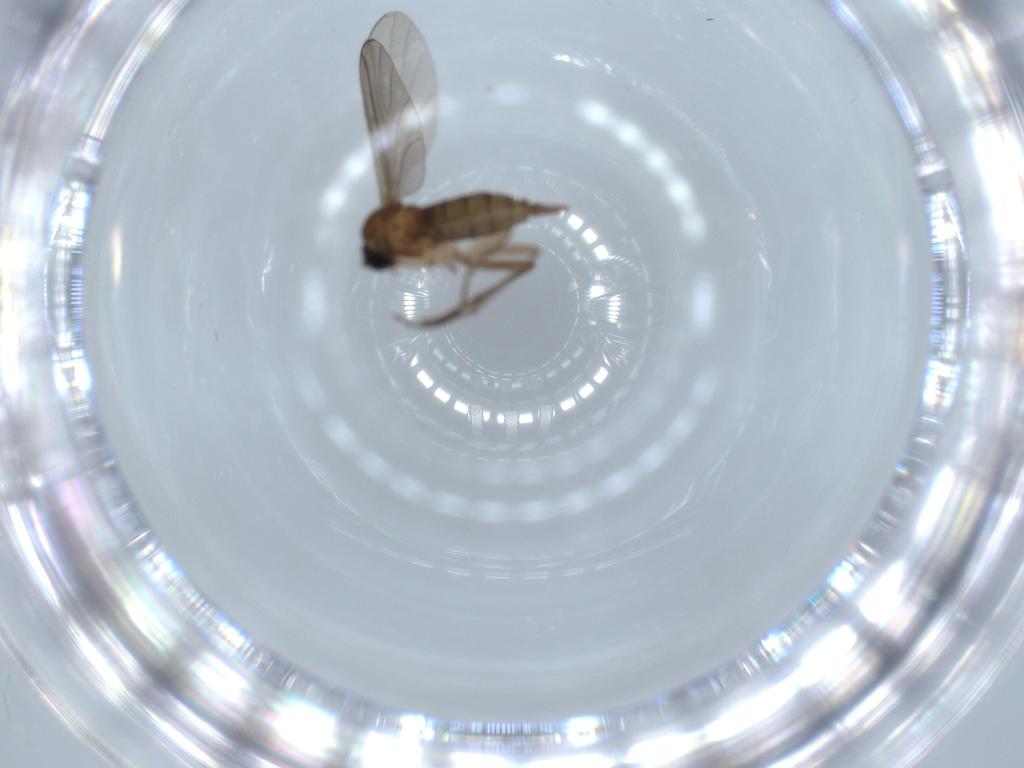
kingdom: Animalia
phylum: Arthropoda
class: Insecta
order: Diptera
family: Sciaridae
